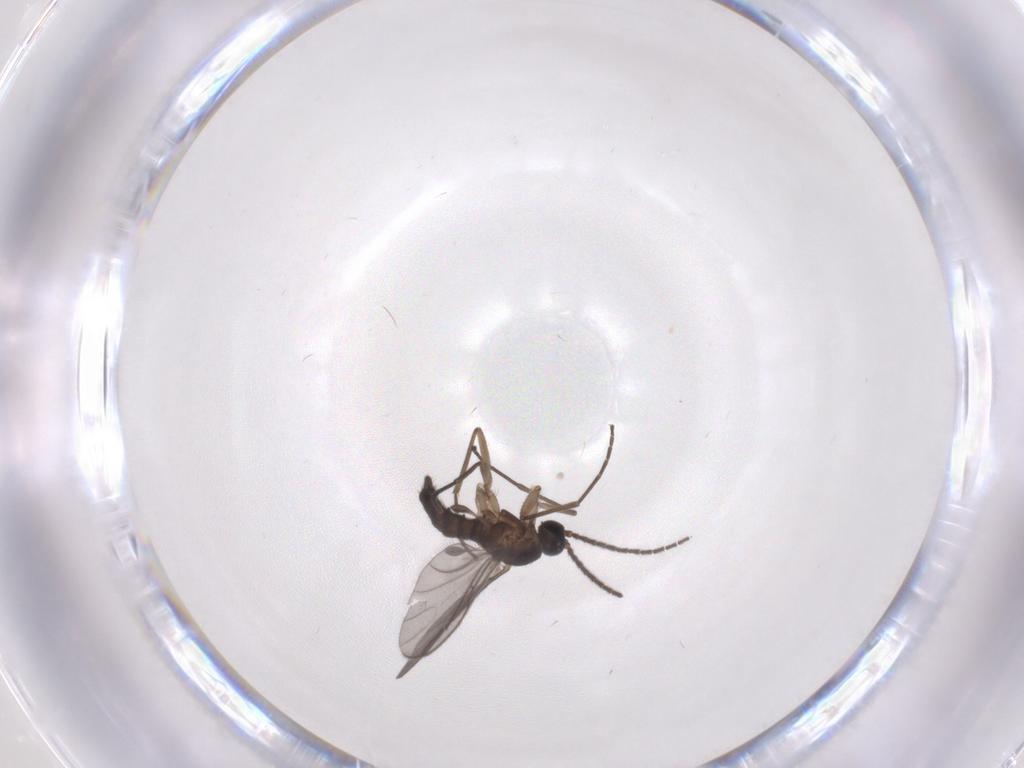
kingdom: Animalia
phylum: Arthropoda
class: Insecta
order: Diptera
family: Sciaridae
